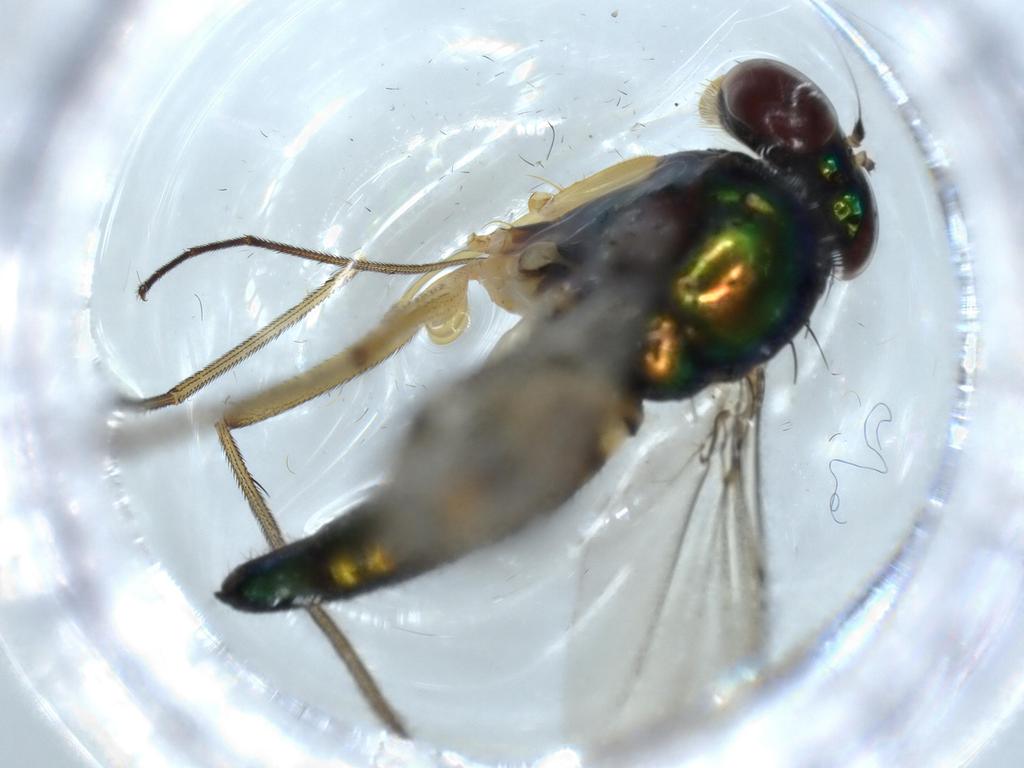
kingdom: Animalia
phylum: Arthropoda
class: Insecta
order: Diptera
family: Dolichopodidae
